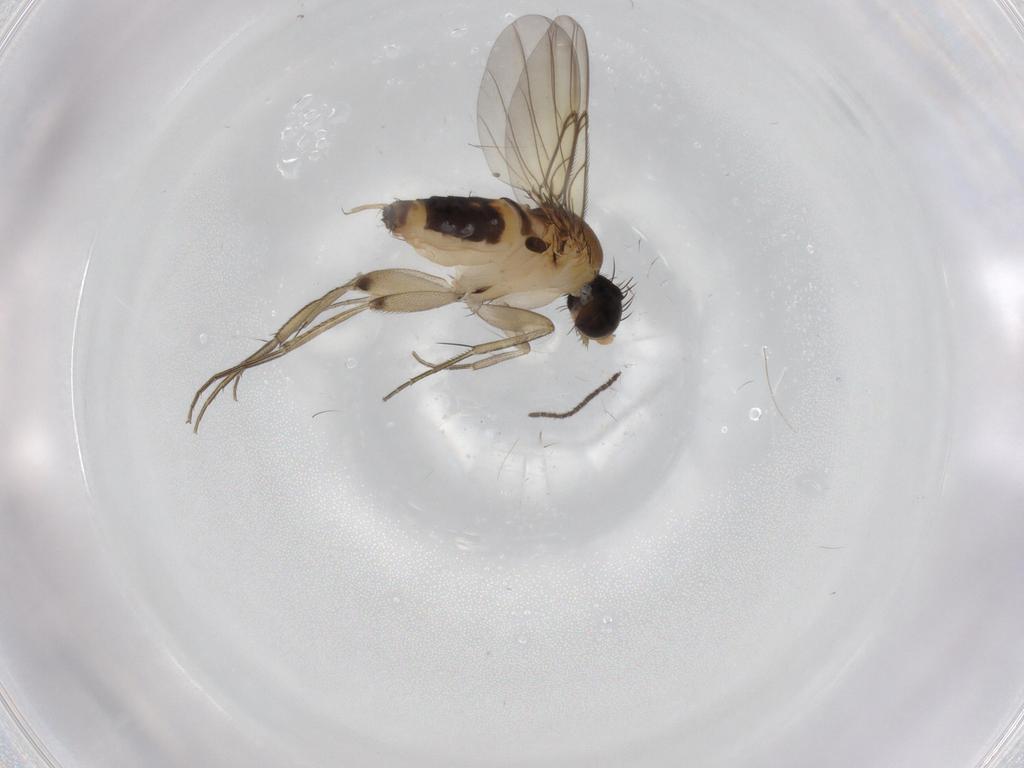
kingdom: Animalia
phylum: Arthropoda
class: Insecta
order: Diptera
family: Phoridae
